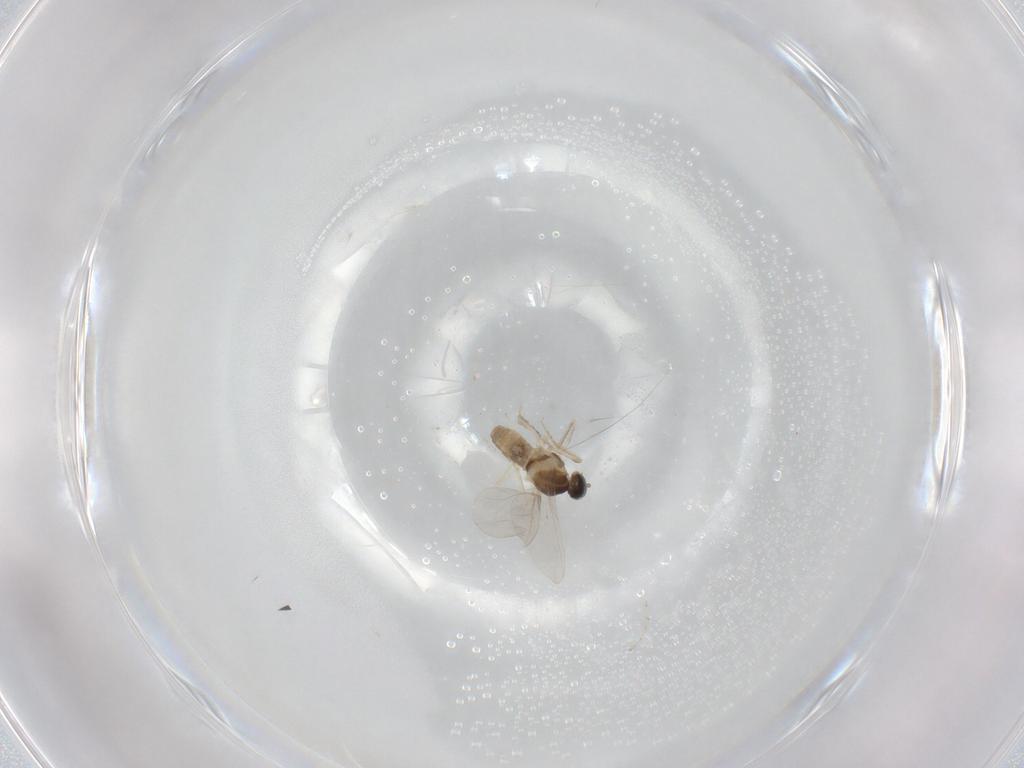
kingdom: Animalia
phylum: Arthropoda
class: Insecta
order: Diptera
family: Cecidomyiidae
